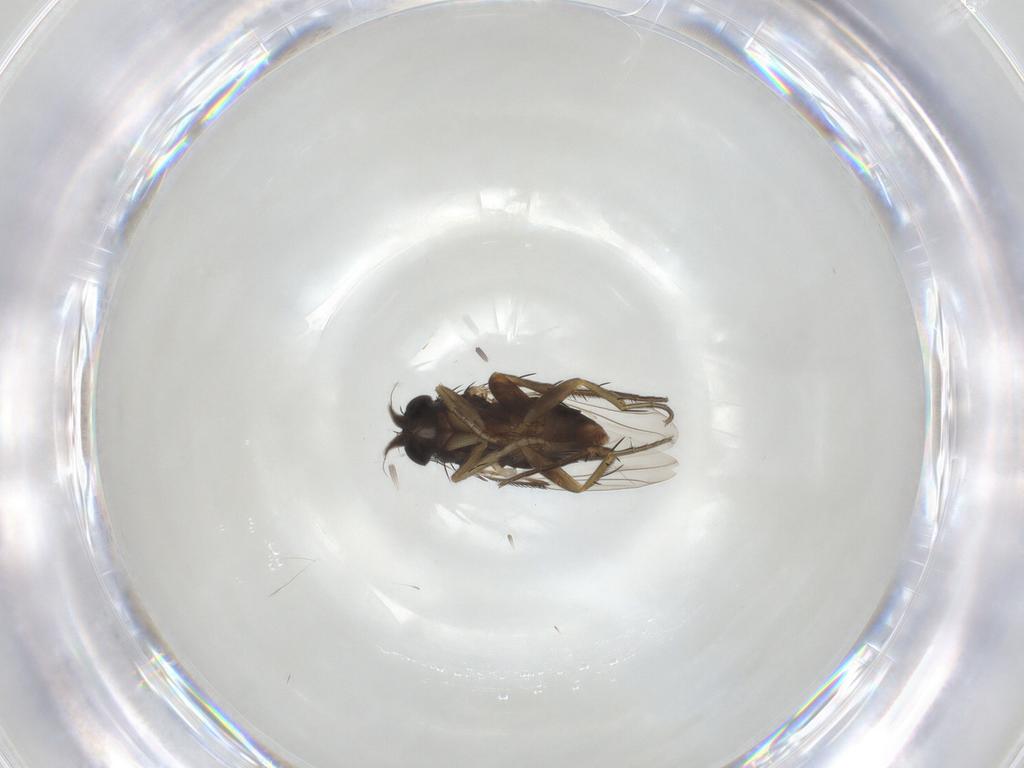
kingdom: Animalia
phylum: Arthropoda
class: Insecta
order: Diptera
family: Phoridae
